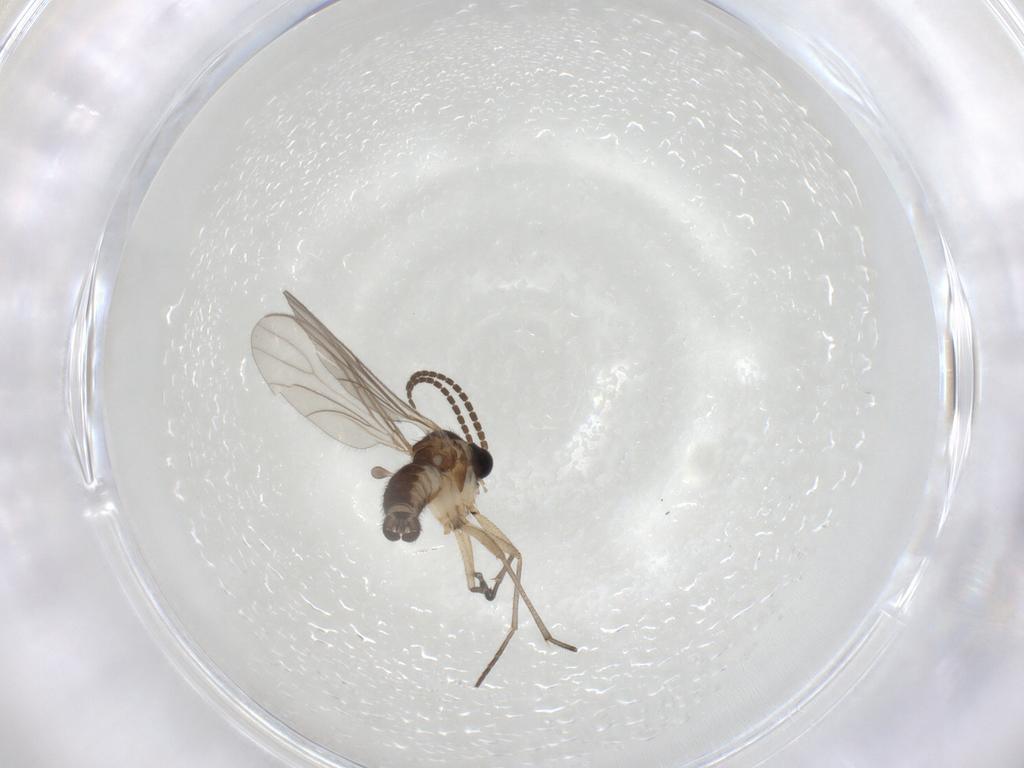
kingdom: Animalia
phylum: Arthropoda
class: Insecta
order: Diptera
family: Sciaridae
